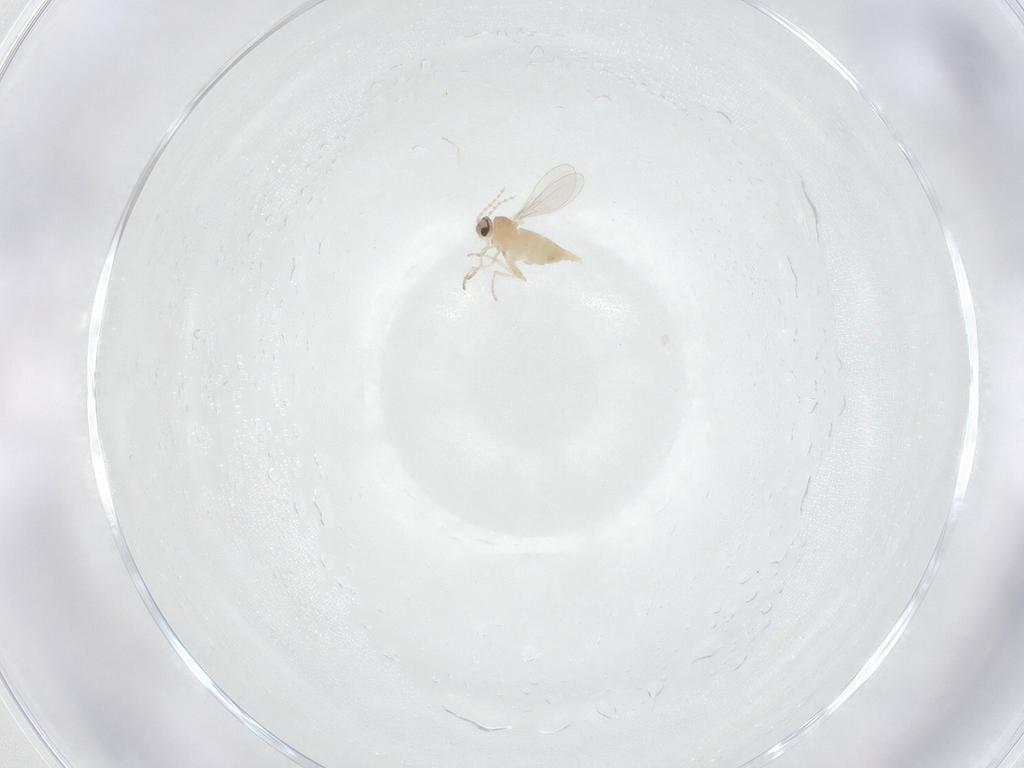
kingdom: Animalia
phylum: Arthropoda
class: Insecta
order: Diptera
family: Cecidomyiidae
